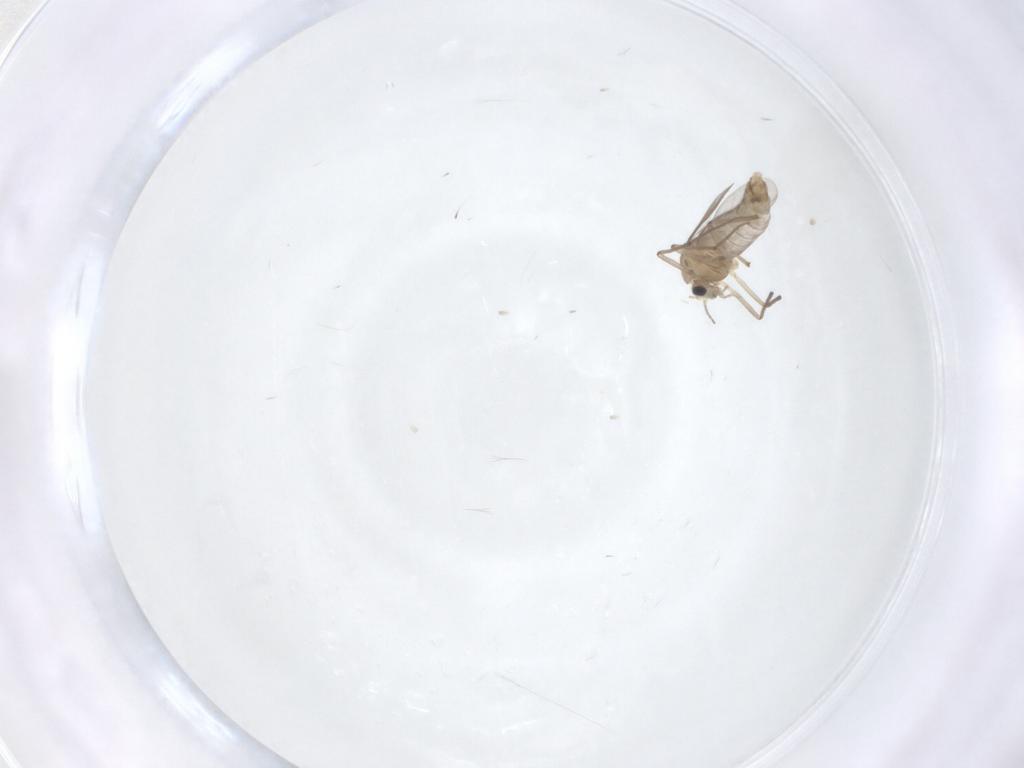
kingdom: Animalia
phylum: Arthropoda
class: Insecta
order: Diptera
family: Chironomidae
